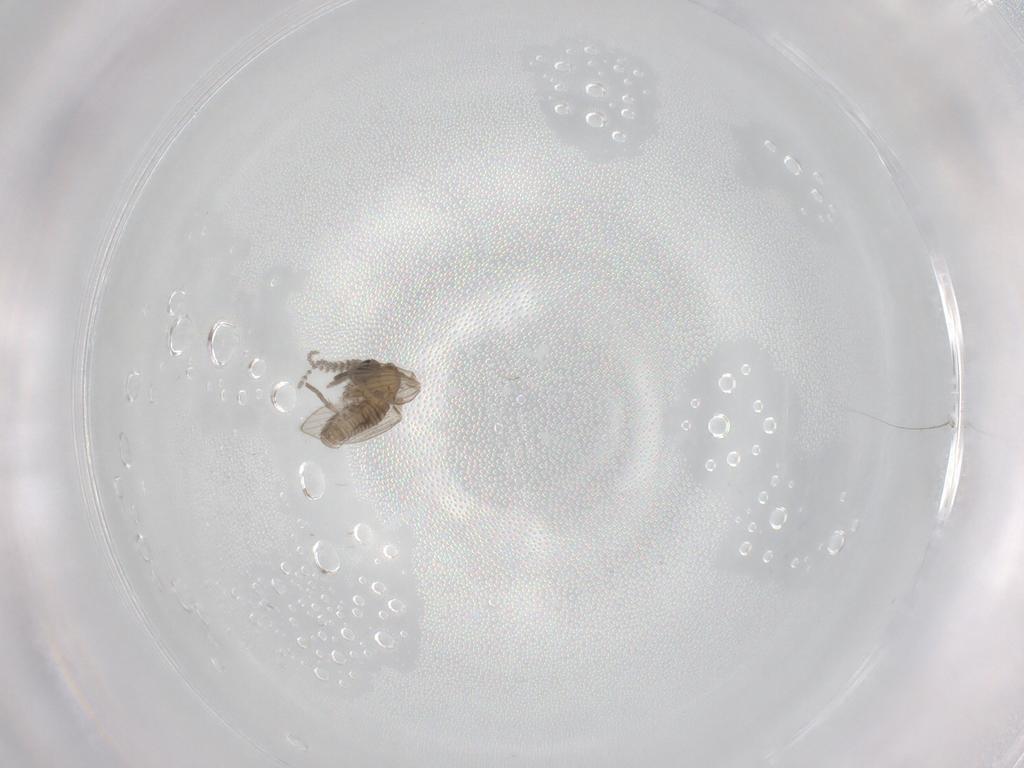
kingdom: Animalia
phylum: Arthropoda
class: Insecta
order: Diptera
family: Psychodidae
